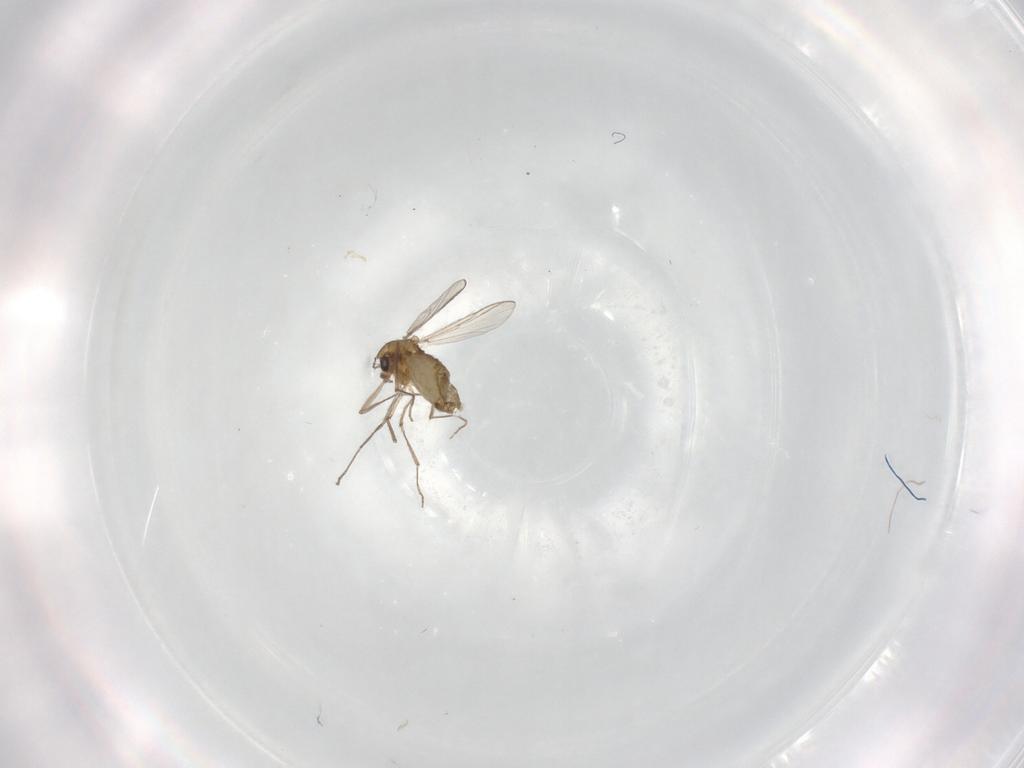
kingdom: Animalia
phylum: Arthropoda
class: Insecta
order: Diptera
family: Chironomidae
